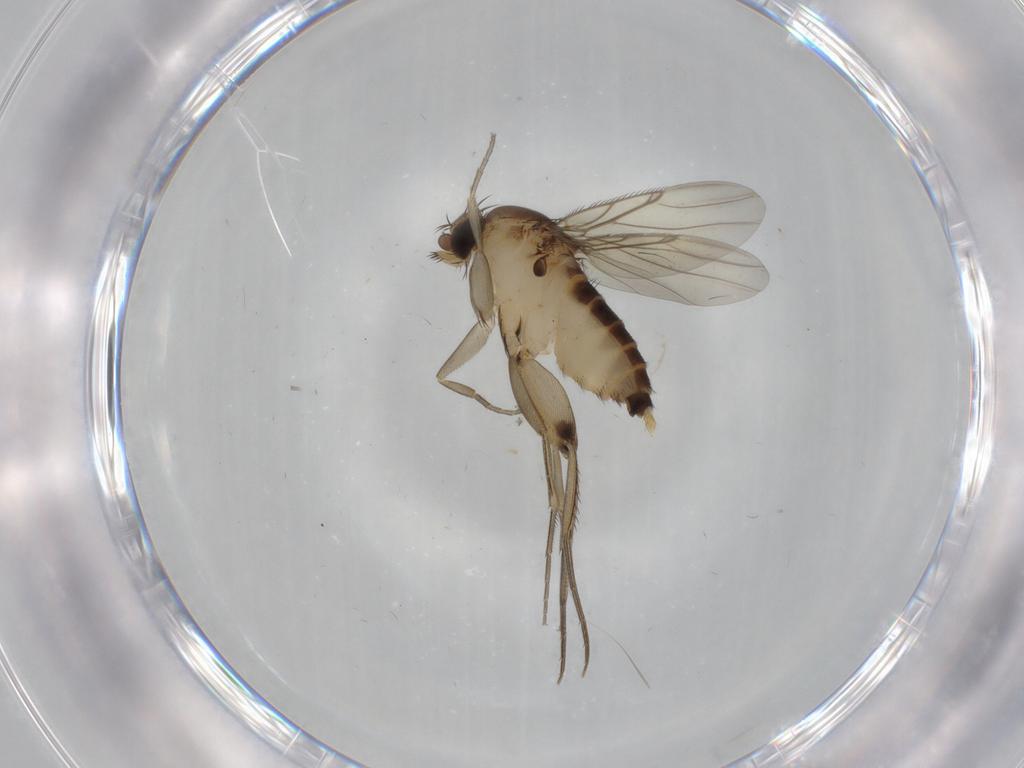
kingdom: Animalia
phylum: Arthropoda
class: Insecta
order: Diptera
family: Phoridae
